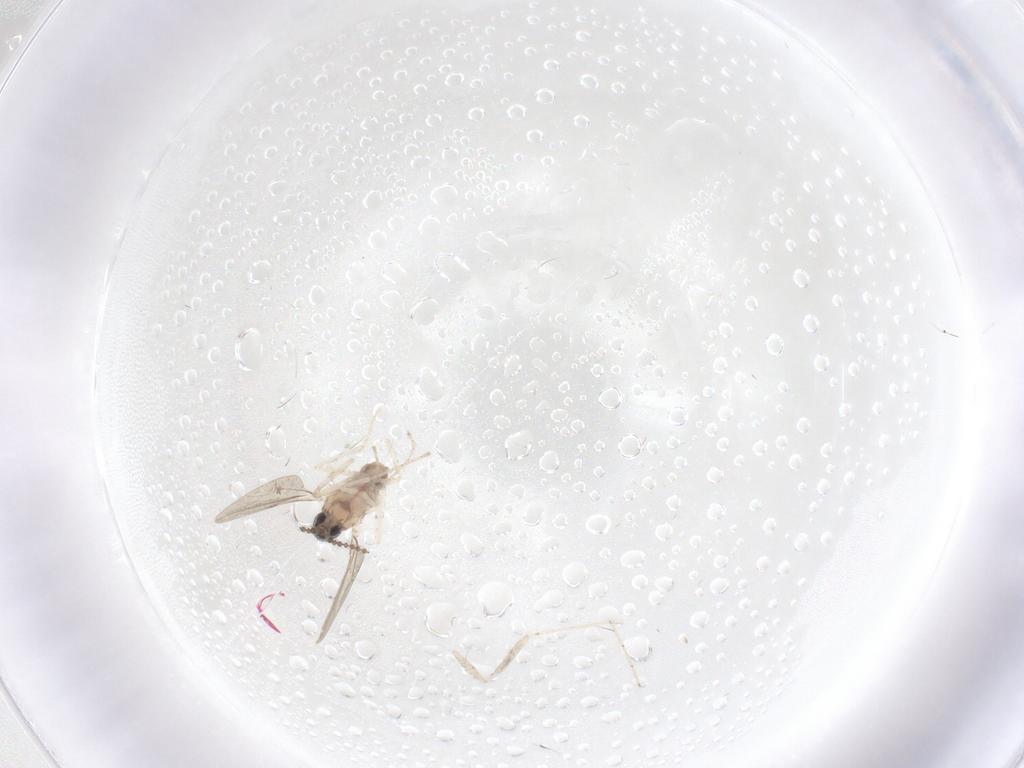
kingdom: Animalia
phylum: Arthropoda
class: Insecta
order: Diptera
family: Cecidomyiidae
